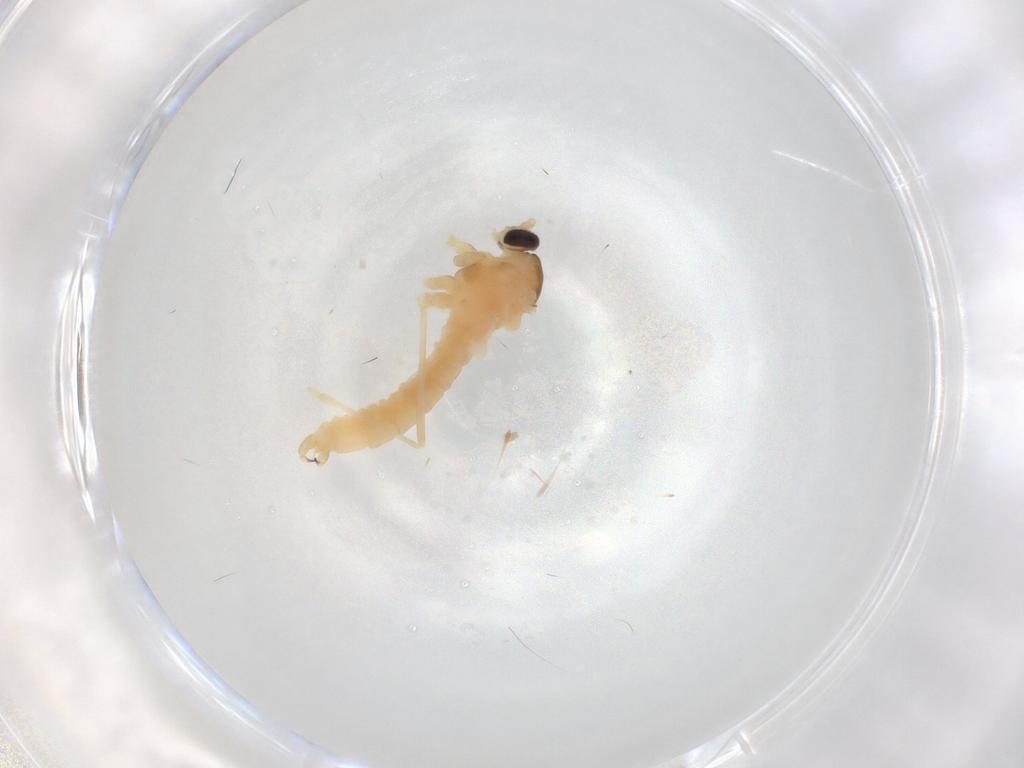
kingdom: Animalia
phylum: Arthropoda
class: Insecta
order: Diptera
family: Cecidomyiidae
